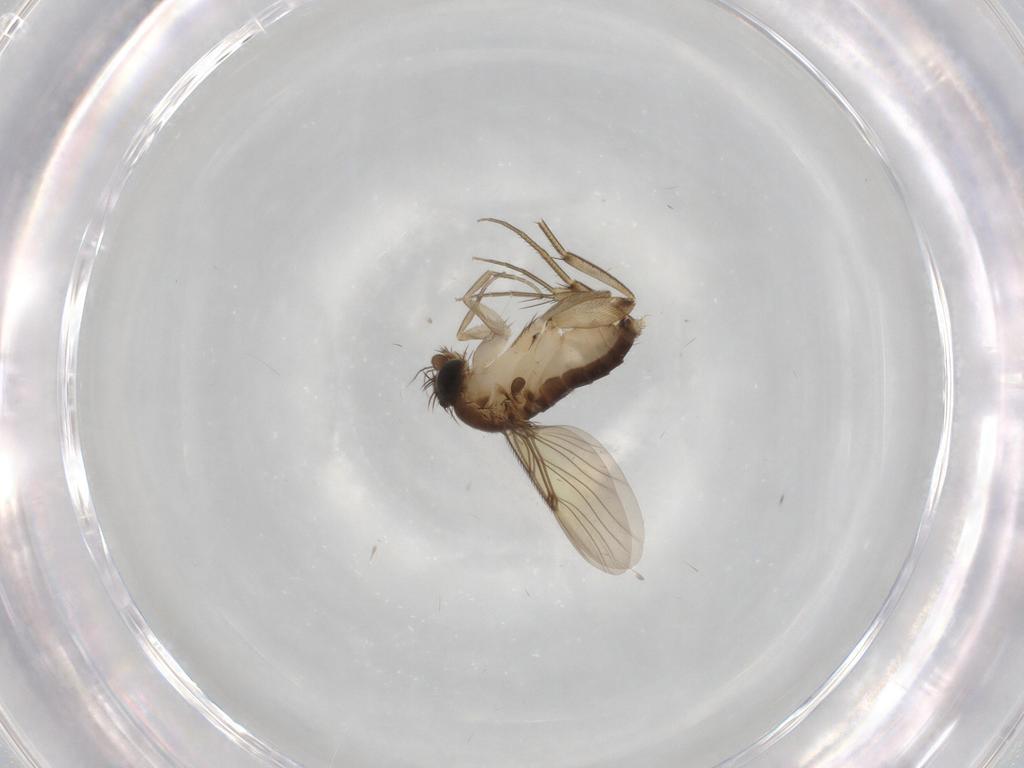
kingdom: Animalia
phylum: Arthropoda
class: Insecta
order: Diptera
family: Phoridae
